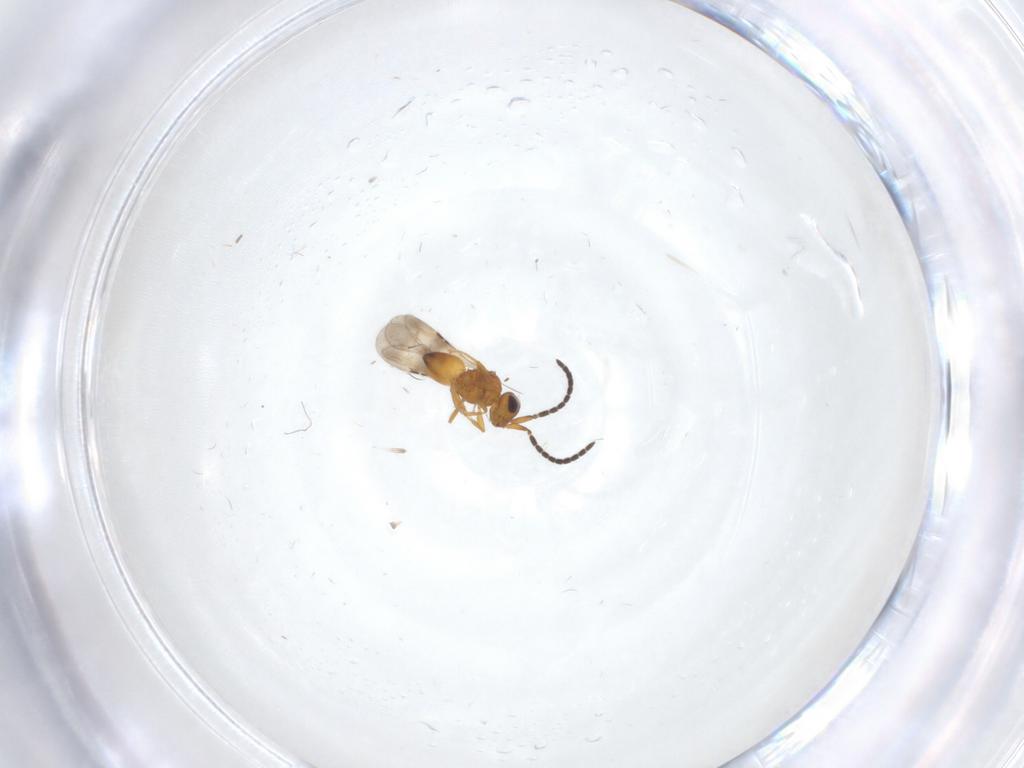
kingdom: Animalia
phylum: Arthropoda
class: Insecta
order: Hymenoptera
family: Ceraphronidae
